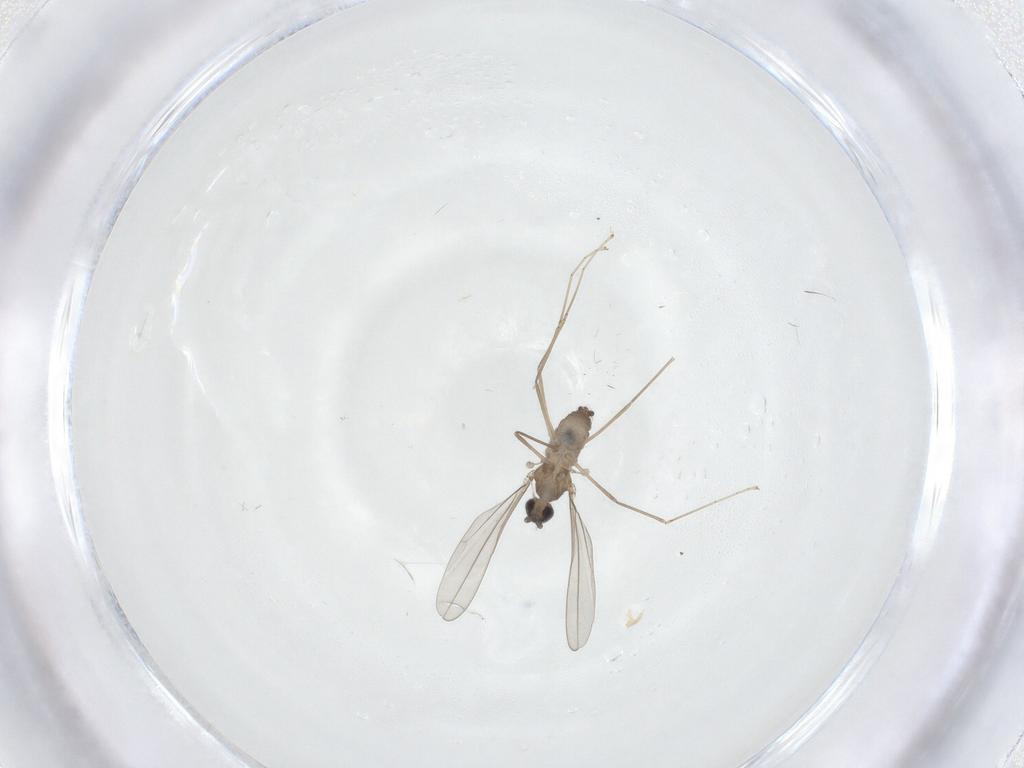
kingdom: Animalia
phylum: Arthropoda
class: Insecta
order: Diptera
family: Cecidomyiidae
